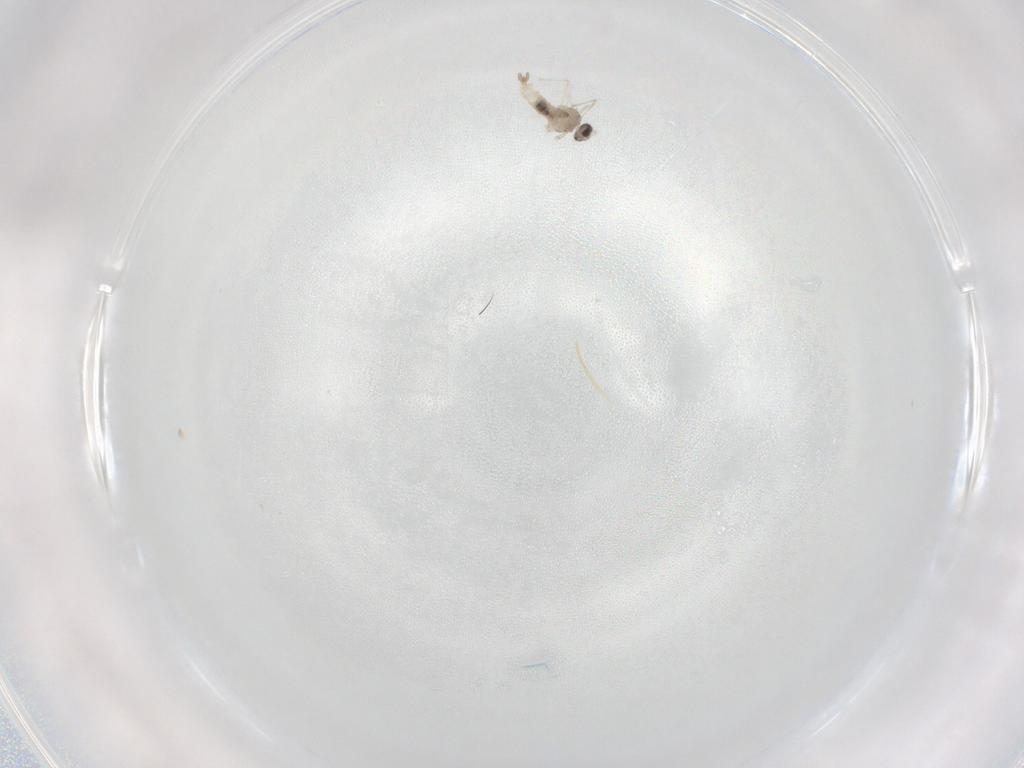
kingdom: Animalia
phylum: Arthropoda
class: Insecta
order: Diptera
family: Cecidomyiidae
